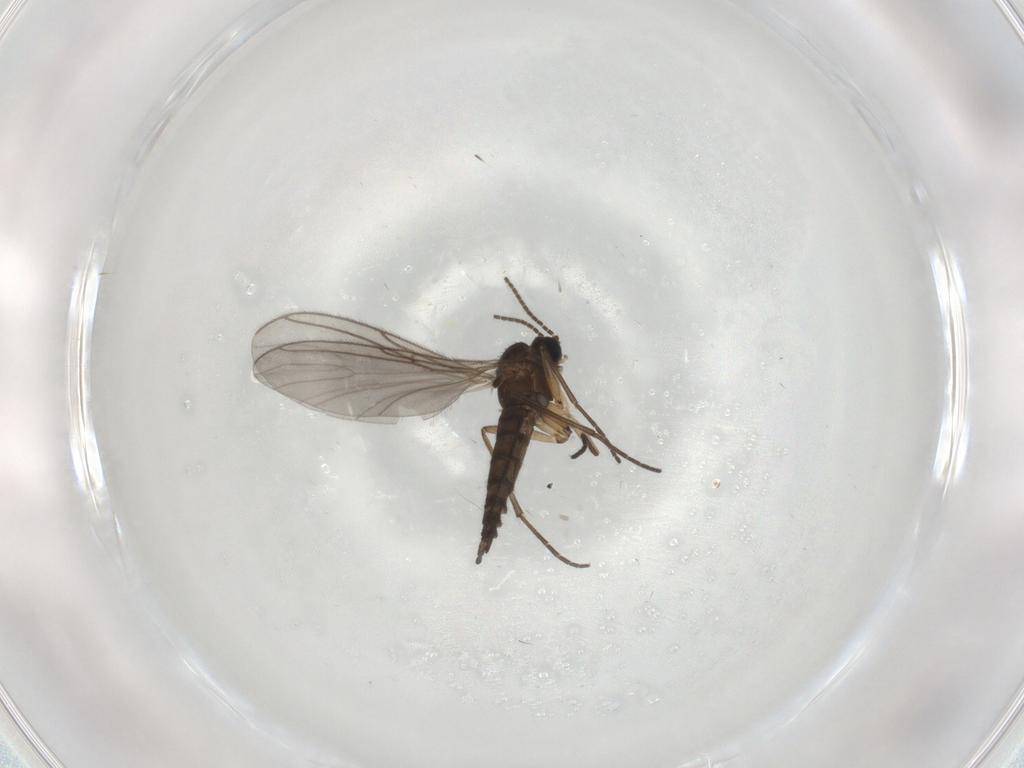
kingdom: Animalia
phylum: Arthropoda
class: Insecta
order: Diptera
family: Sciaridae
